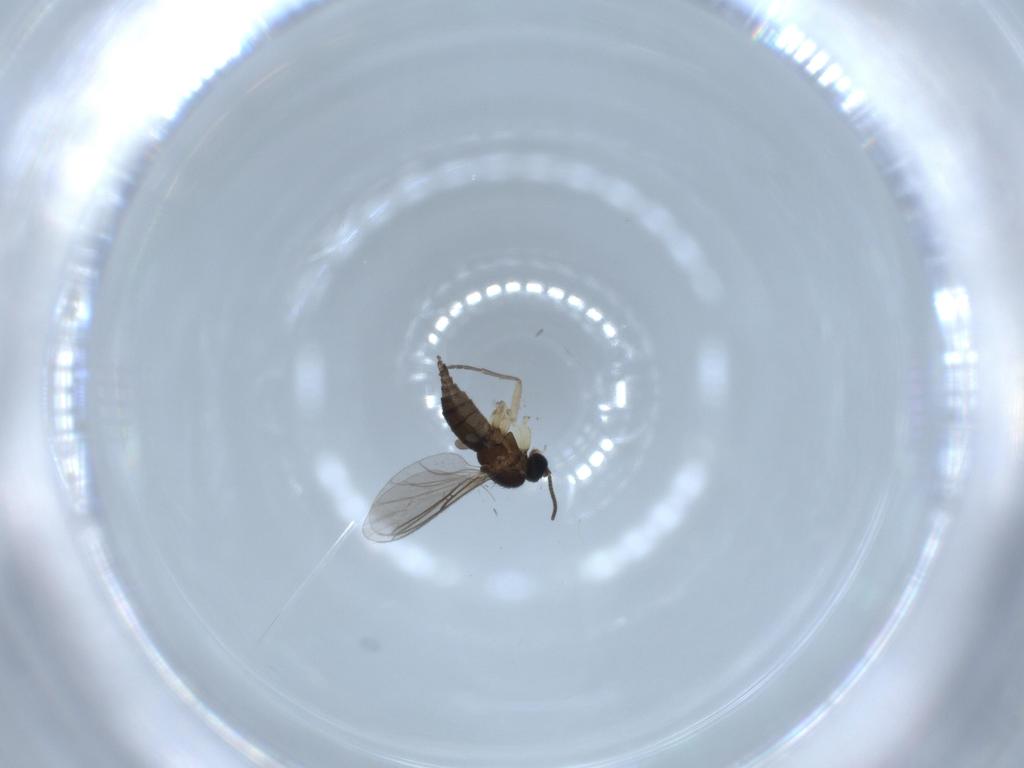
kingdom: Animalia
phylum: Arthropoda
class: Insecta
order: Diptera
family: Sciaridae
